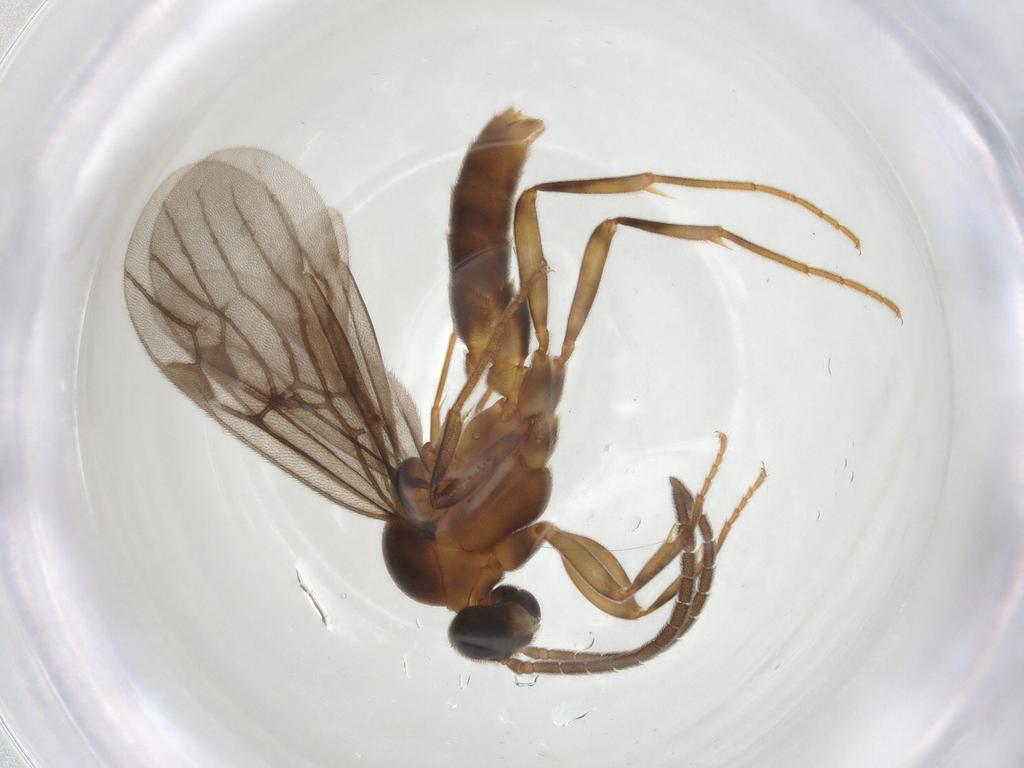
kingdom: Animalia
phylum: Arthropoda
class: Insecta
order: Hymenoptera
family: Formicidae
